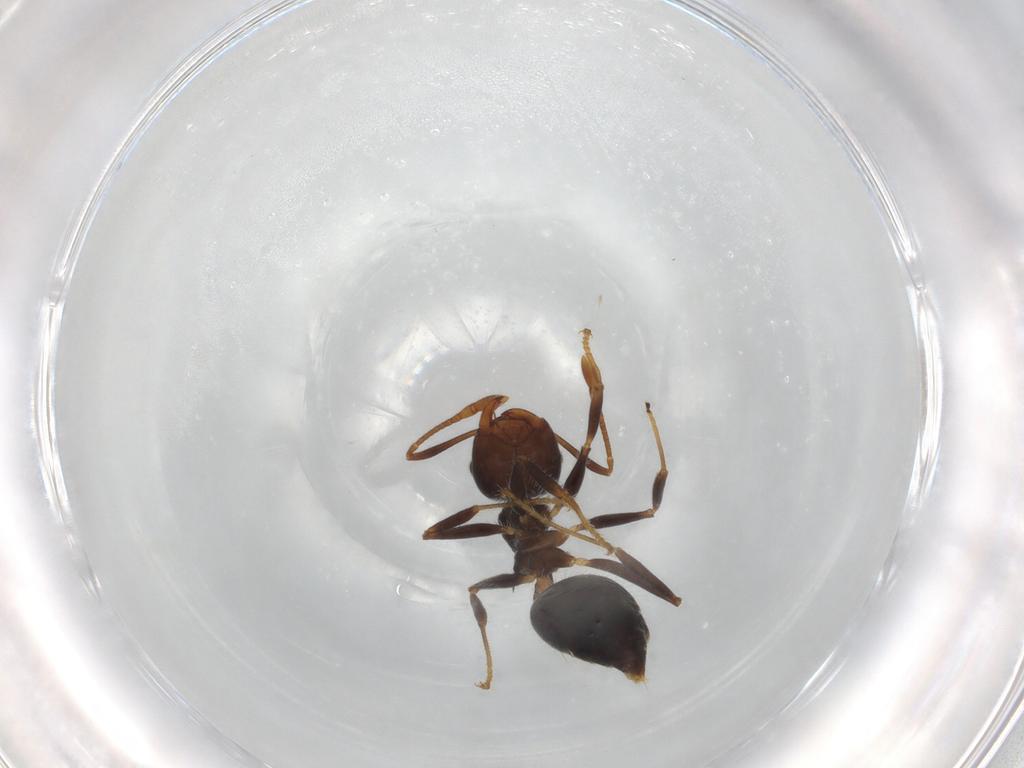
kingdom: Animalia
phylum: Arthropoda
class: Insecta
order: Hymenoptera
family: Formicidae
